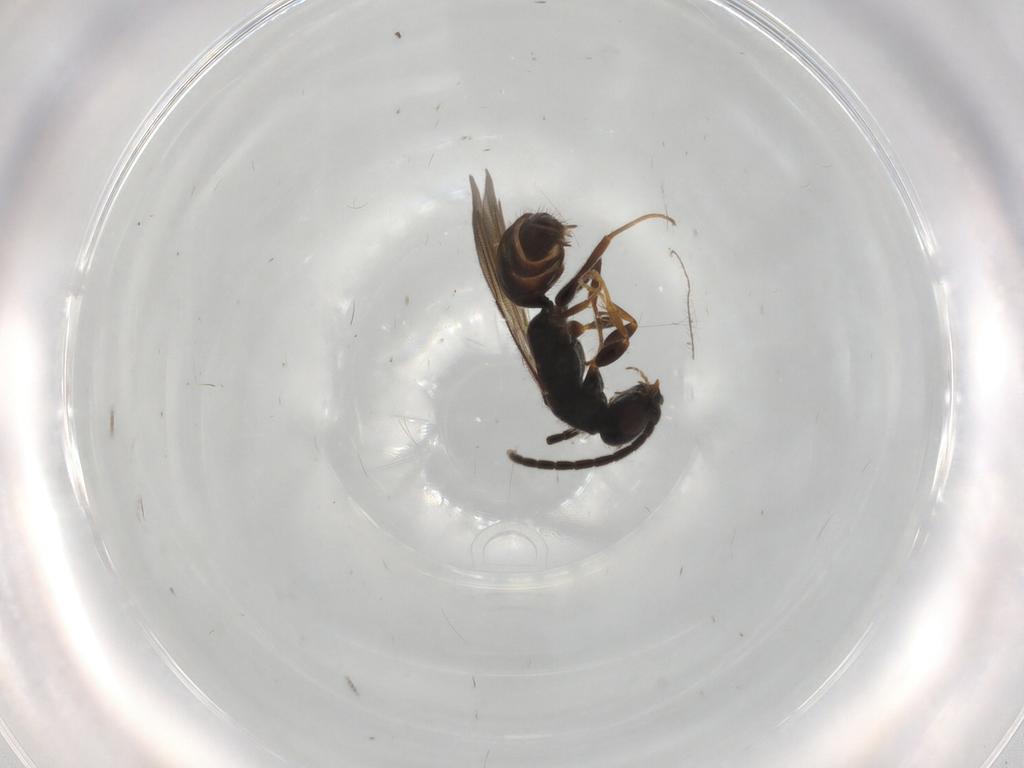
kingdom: Animalia
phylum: Arthropoda
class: Insecta
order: Hymenoptera
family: Bethylidae
